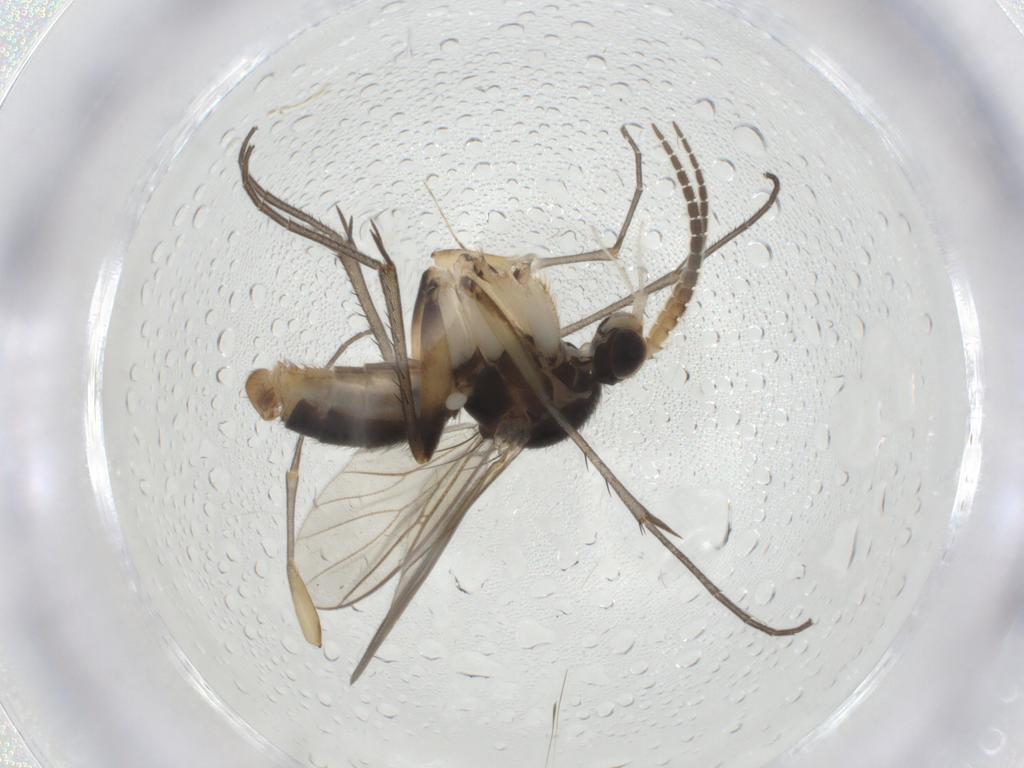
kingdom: Animalia
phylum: Arthropoda
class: Insecta
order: Diptera
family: Mycetophilidae
